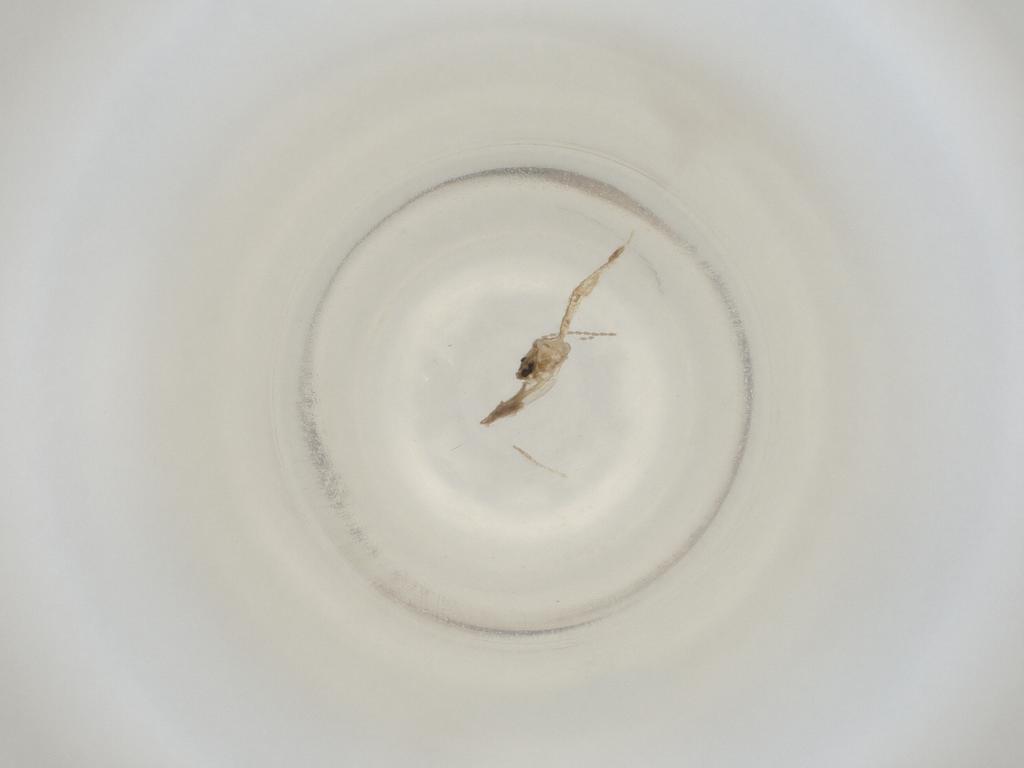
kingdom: Animalia
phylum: Arthropoda
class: Insecta
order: Diptera
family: Cecidomyiidae
